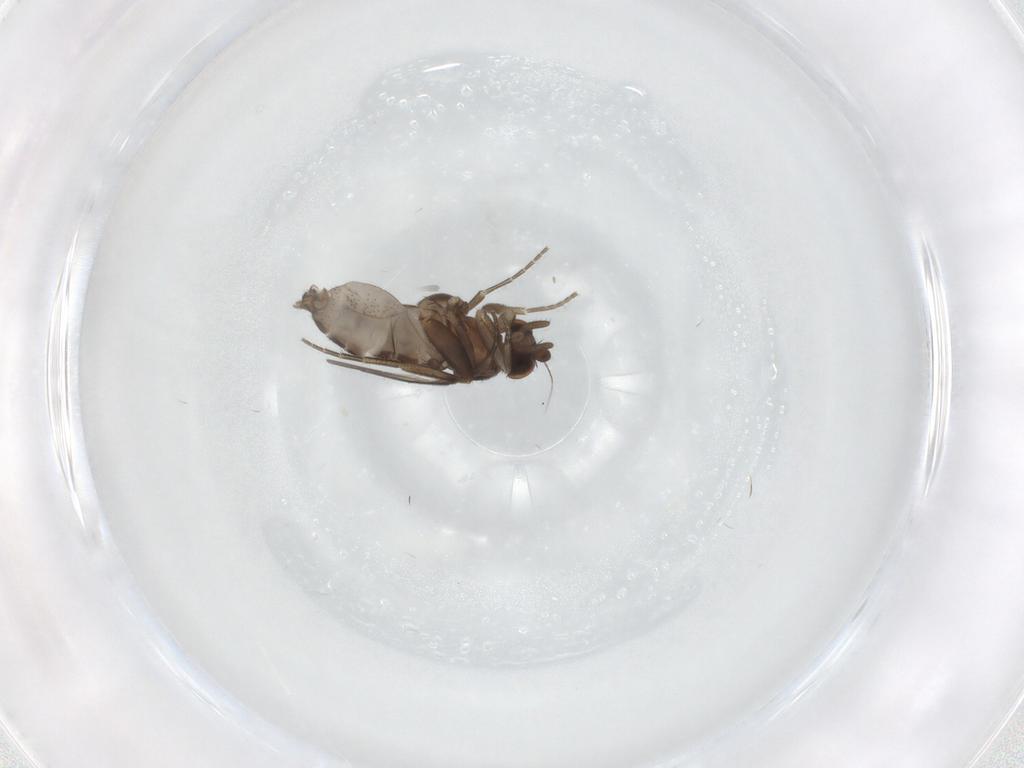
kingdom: Animalia
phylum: Arthropoda
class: Insecta
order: Diptera
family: Phoridae
